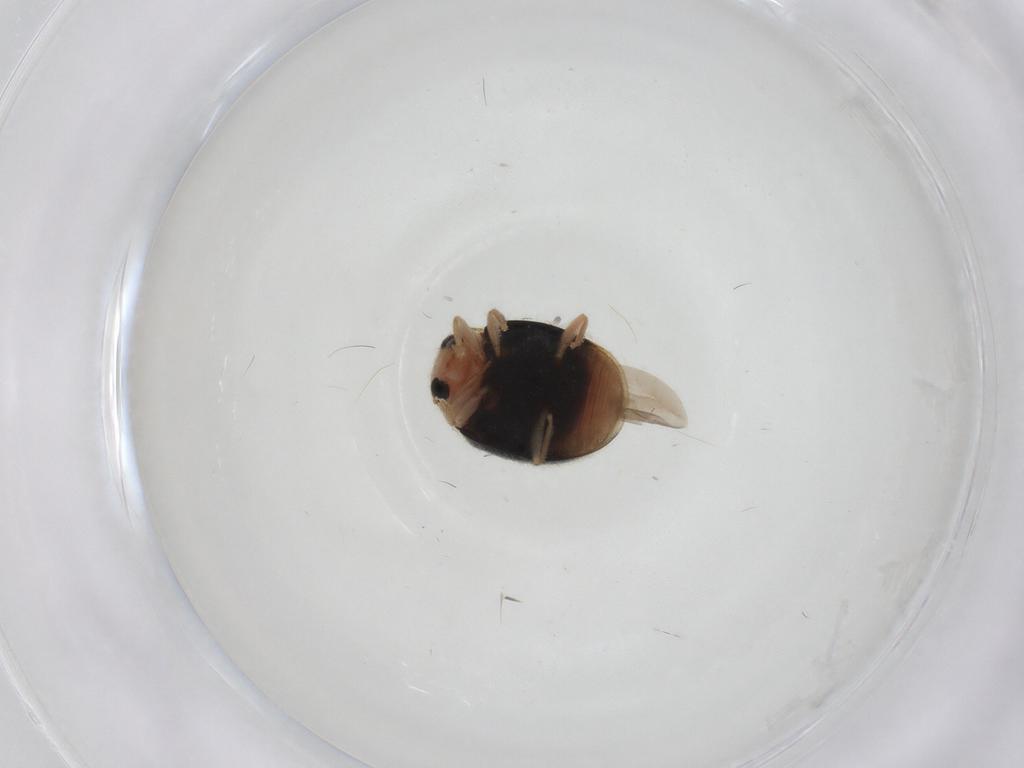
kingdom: Animalia
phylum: Arthropoda
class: Insecta
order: Coleoptera
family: Coccinellidae
